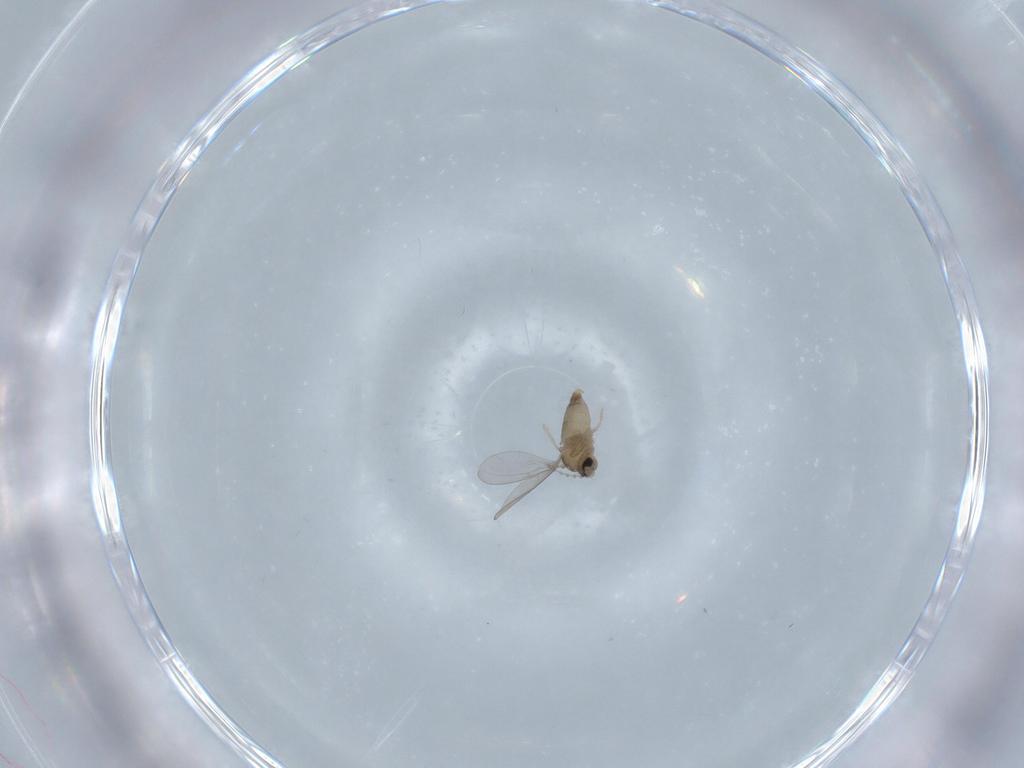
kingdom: Animalia
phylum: Arthropoda
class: Insecta
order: Diptera
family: Cecidomyiidae
